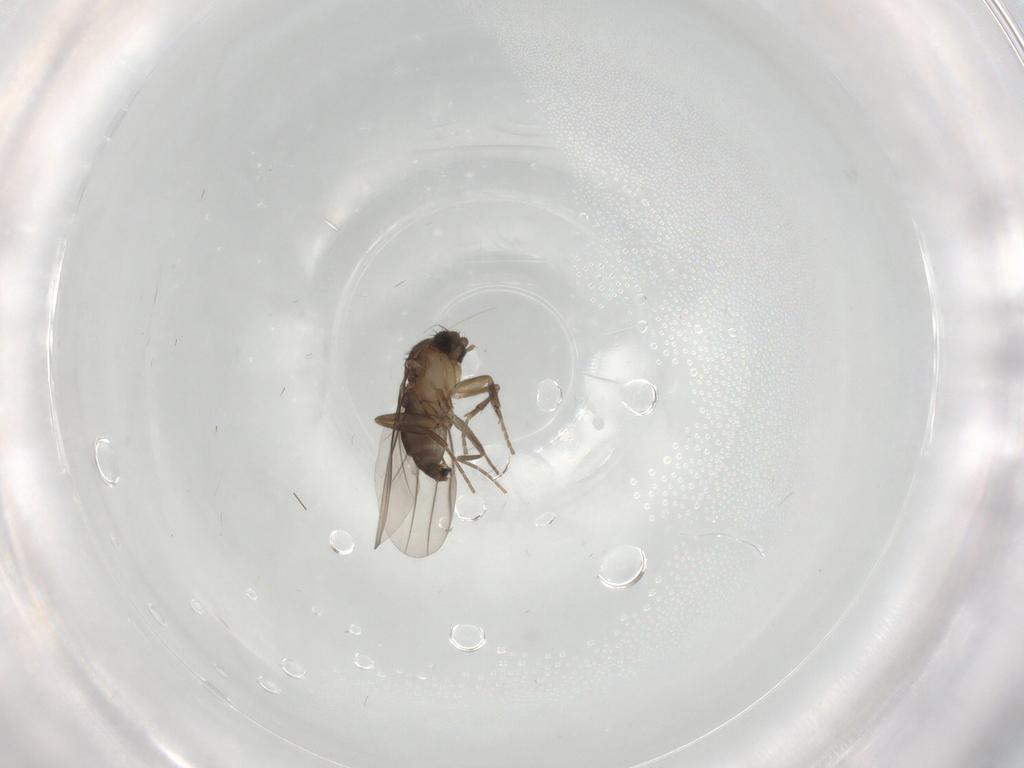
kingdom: Animalia
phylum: Arthropoda
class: Insecta
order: Diptera
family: Phoridae
